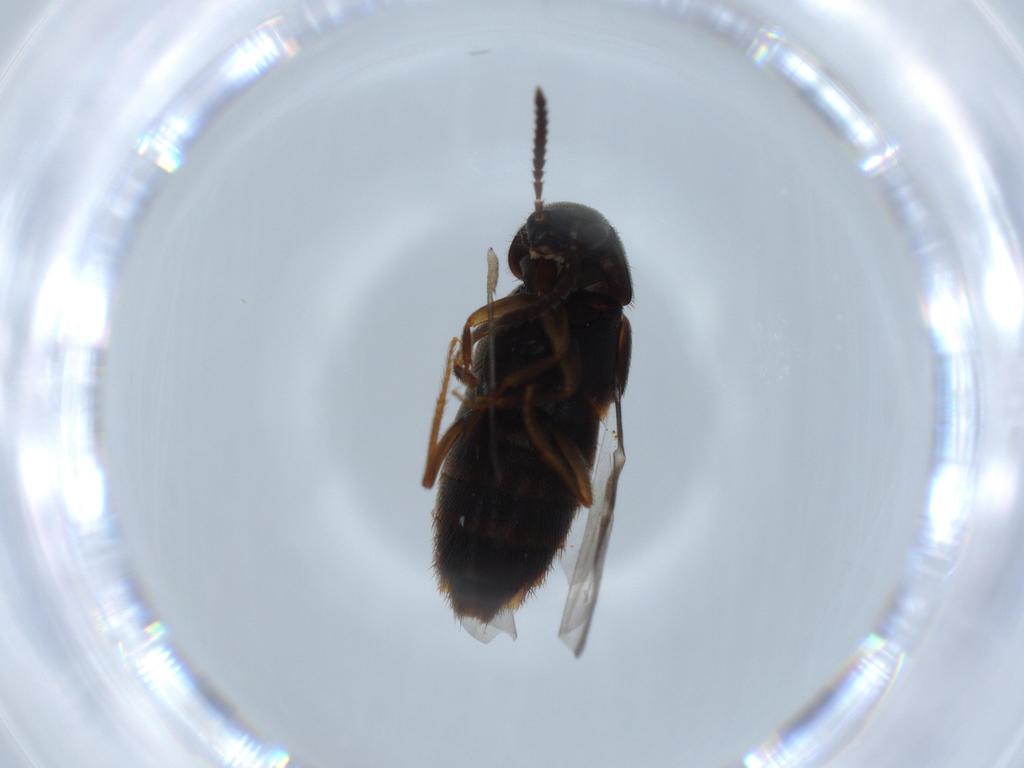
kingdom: Animalia
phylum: Arthropoda
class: Insecta
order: Coleoptera
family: Staphylinidae
